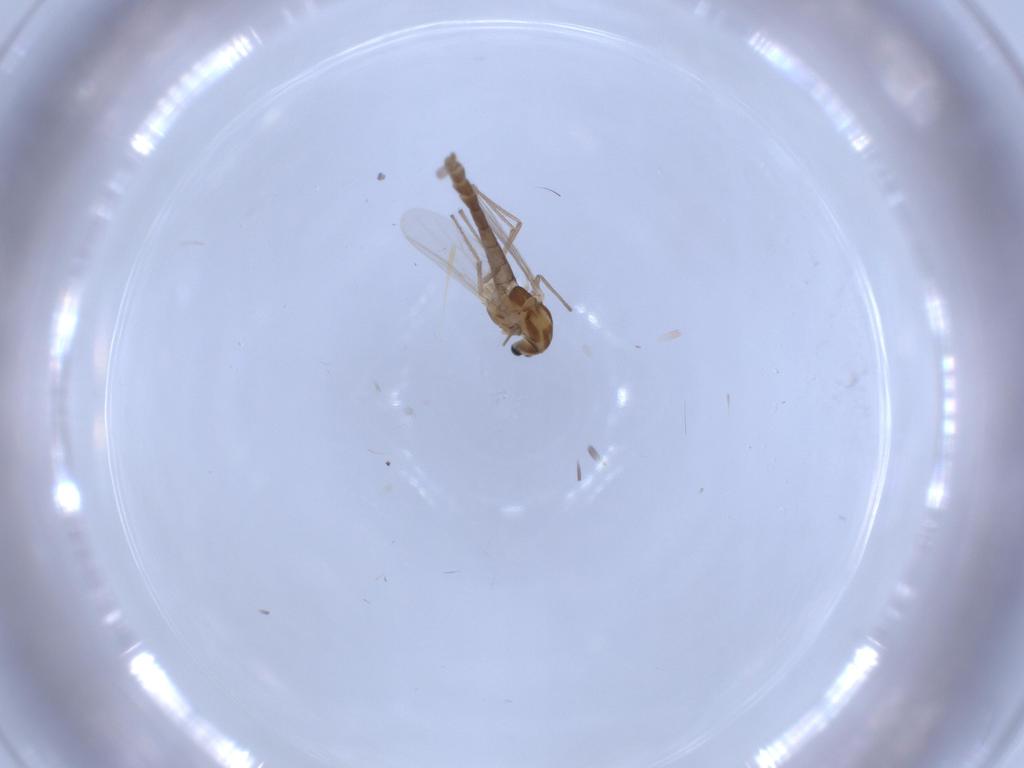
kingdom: Animalia
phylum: Arthropoda
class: Insecta
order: Diptera
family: Chironomidae
